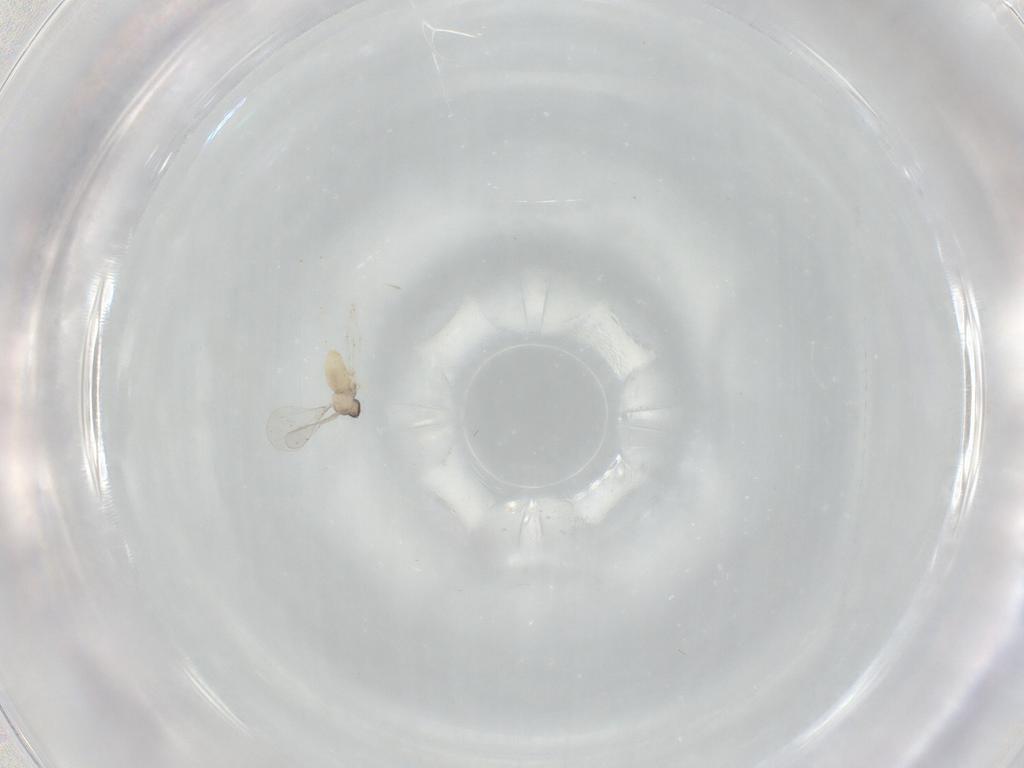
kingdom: Animalia
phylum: Arthropoda
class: Insecta
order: Diptera
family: Cecidomyiidae
